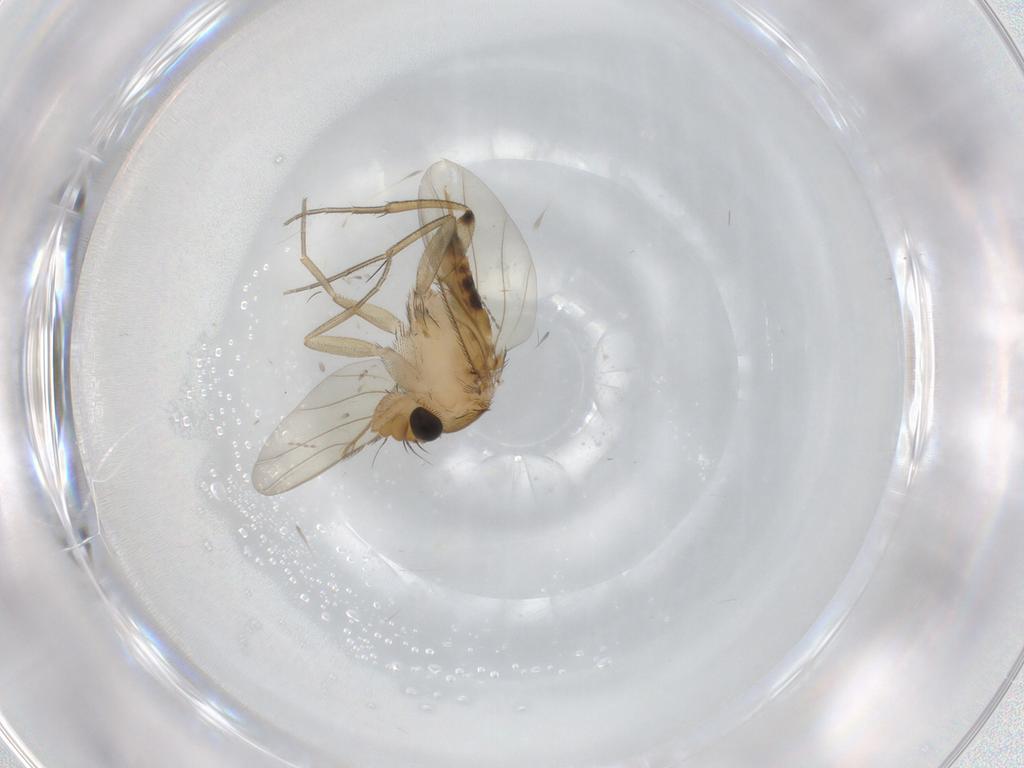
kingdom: Animalia
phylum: Arthropoda
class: Insecta
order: Diptera
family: Phoridae
